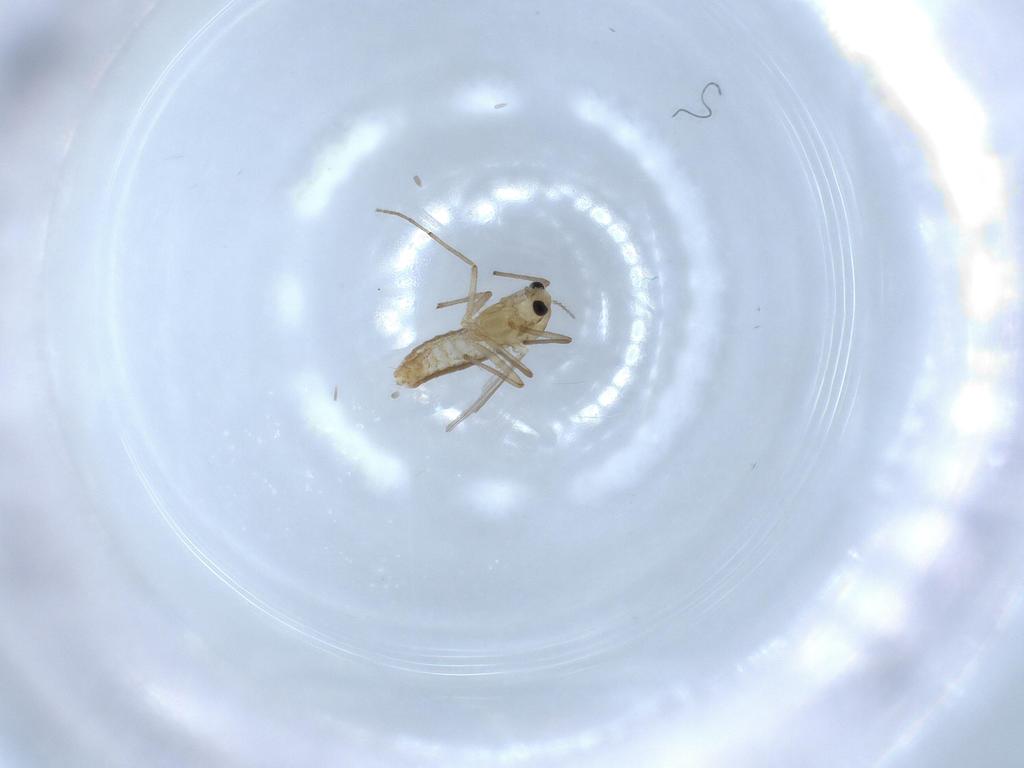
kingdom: Animalia
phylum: Arthropoda
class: Insecta
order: Diptera
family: Chironomidae
